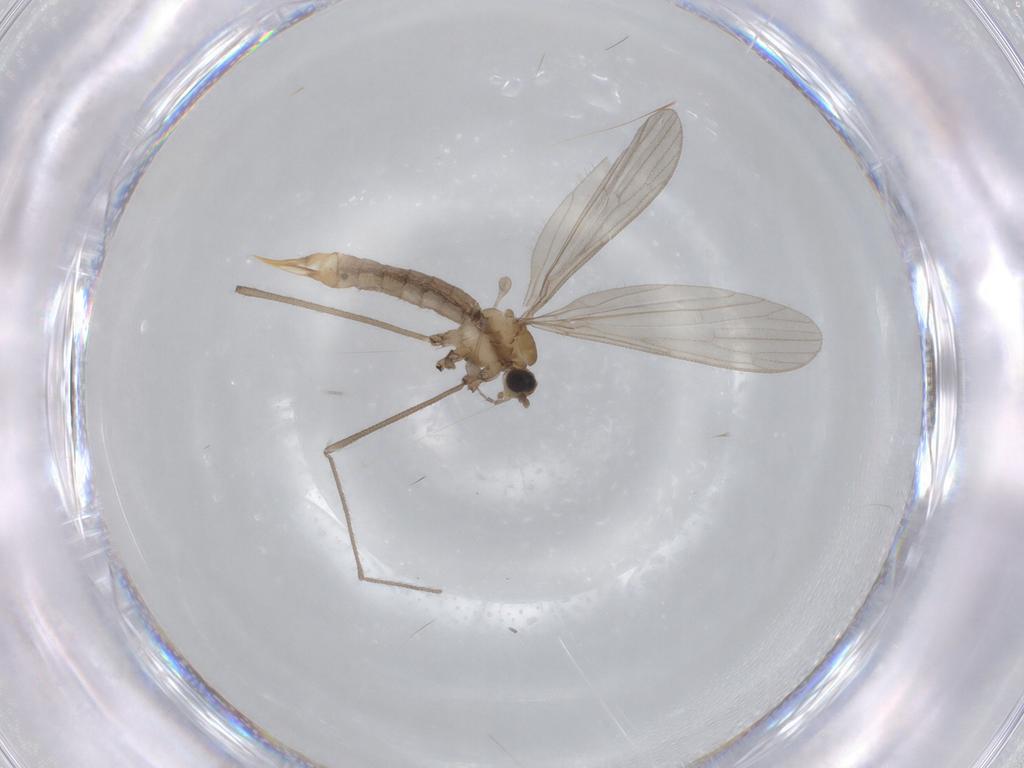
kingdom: Animalia
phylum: Arthropoda
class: Insecta
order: Diptera
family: Limoniidae
